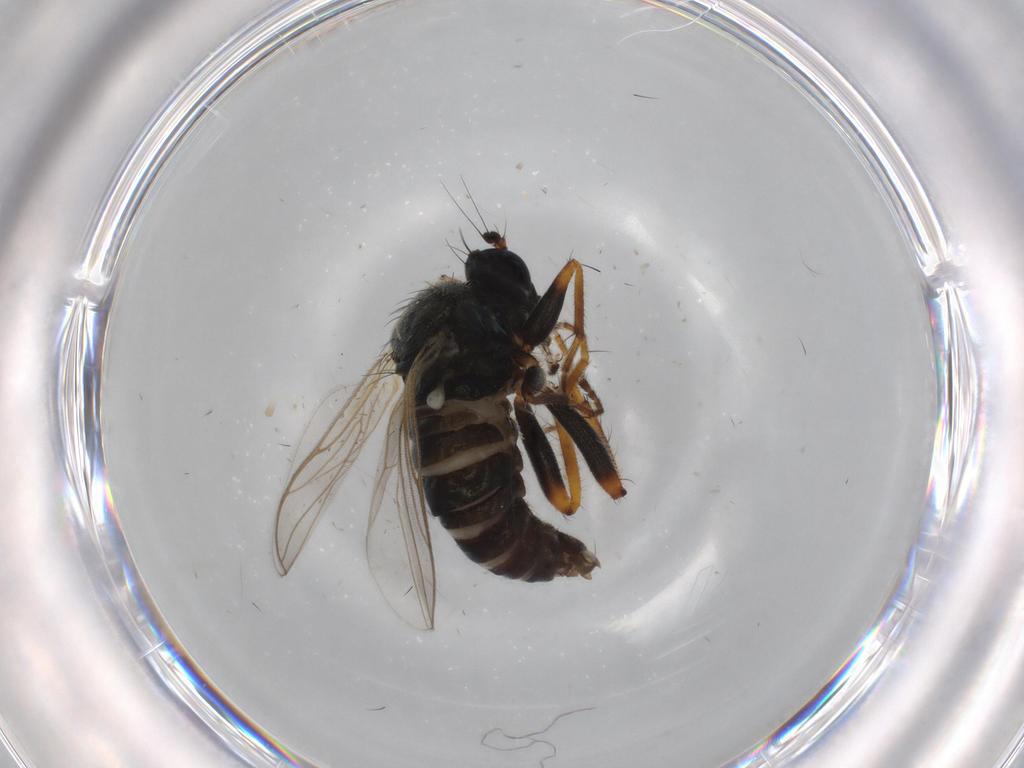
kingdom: Animalia
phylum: Arthropoda
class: Insecta
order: Diptera
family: Hybotidae
